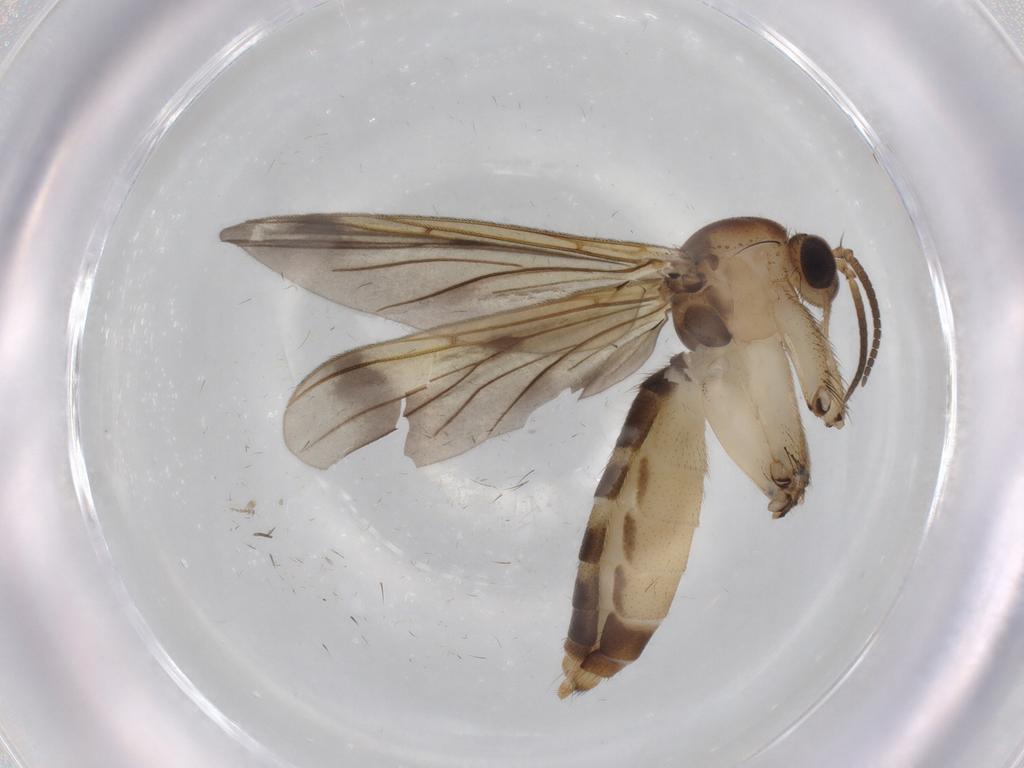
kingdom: Animalia
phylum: Arthropoda
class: Insecta
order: Diptera
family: Mycetophilidae
